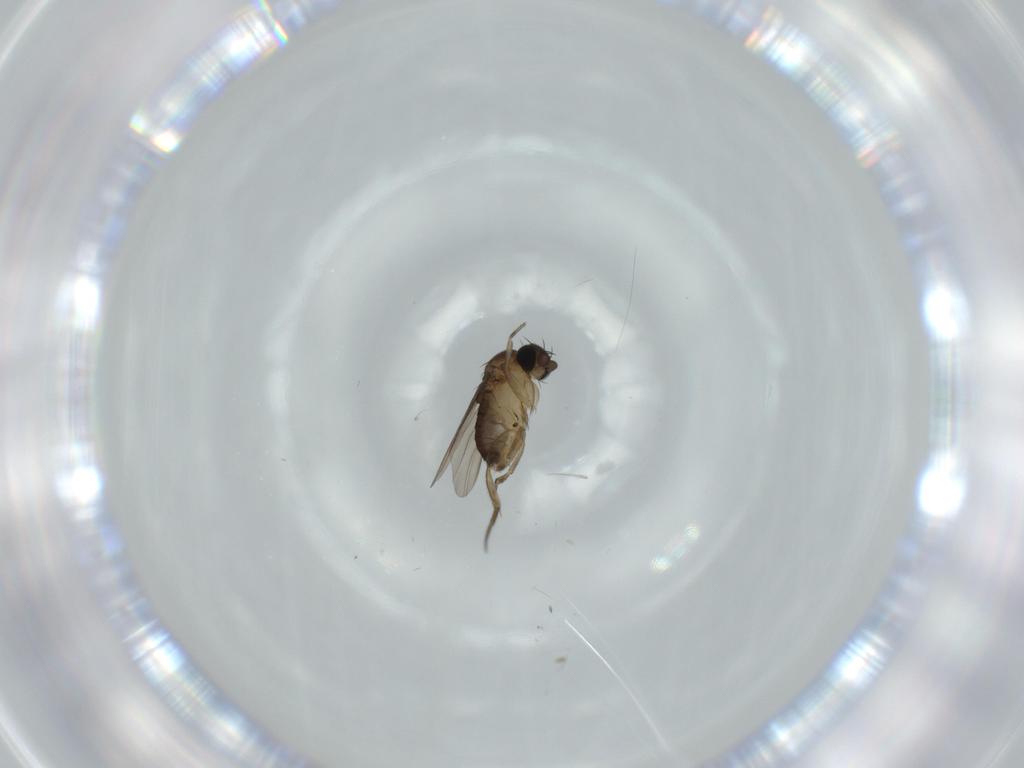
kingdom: Animalia
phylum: Arthropoda
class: Insecta
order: Diptera
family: Phoridae
